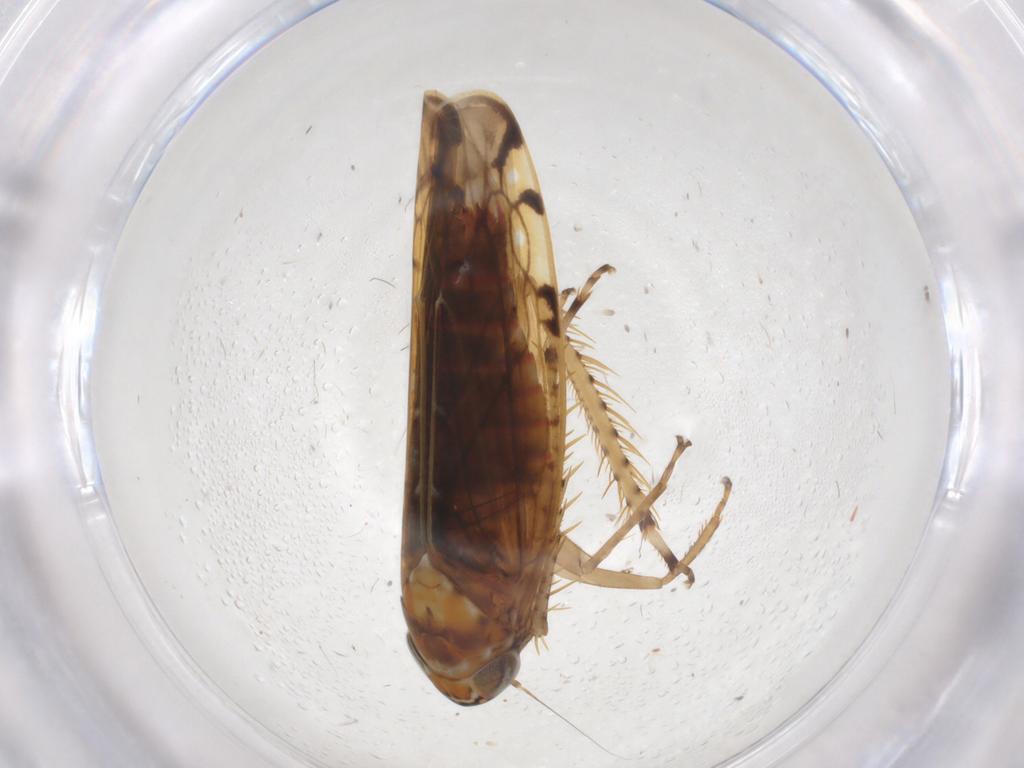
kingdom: Animalia
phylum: Arthropoda
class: Insecta
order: Hemiptera
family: Cicadellidae
